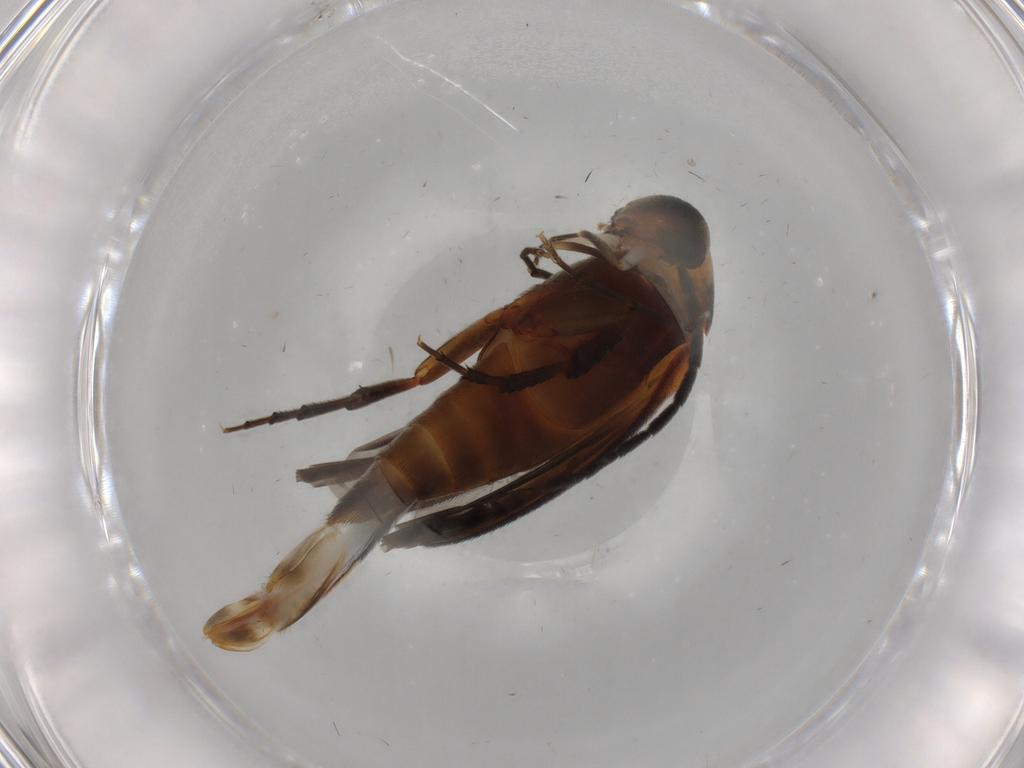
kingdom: Animalia
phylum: Arthropoda
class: Insecta
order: Coleoptera
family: Mordellidae
